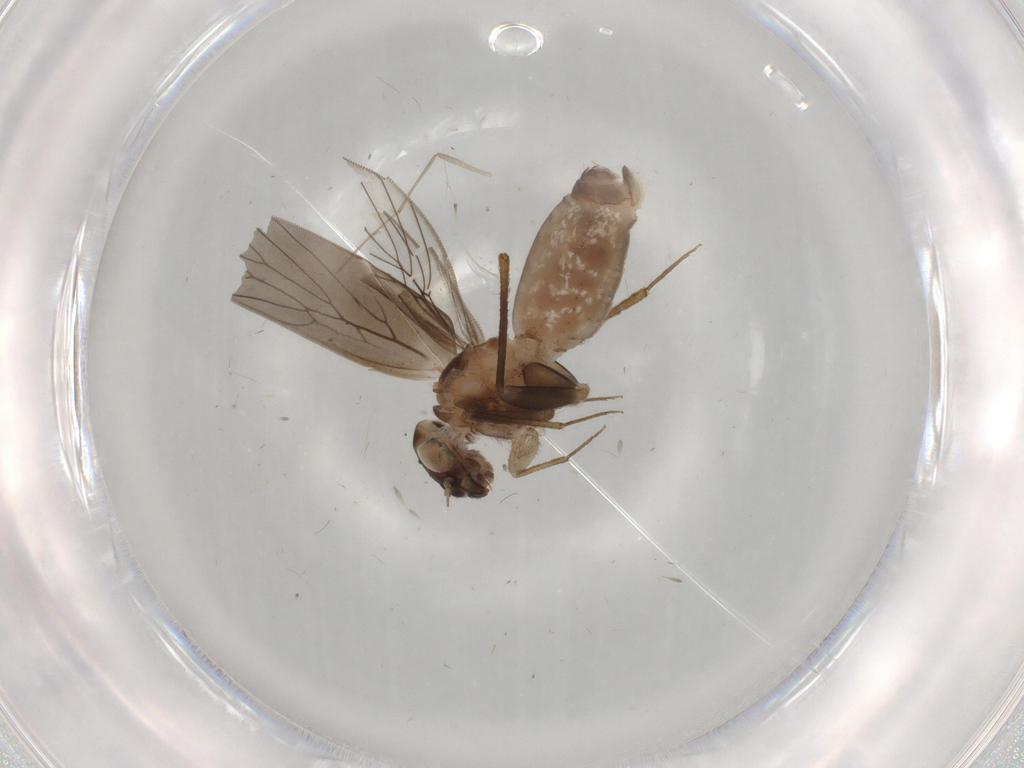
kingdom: Animalia
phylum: Arthropoda
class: Insecta
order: Psocodea
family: Lepidopsocidae
